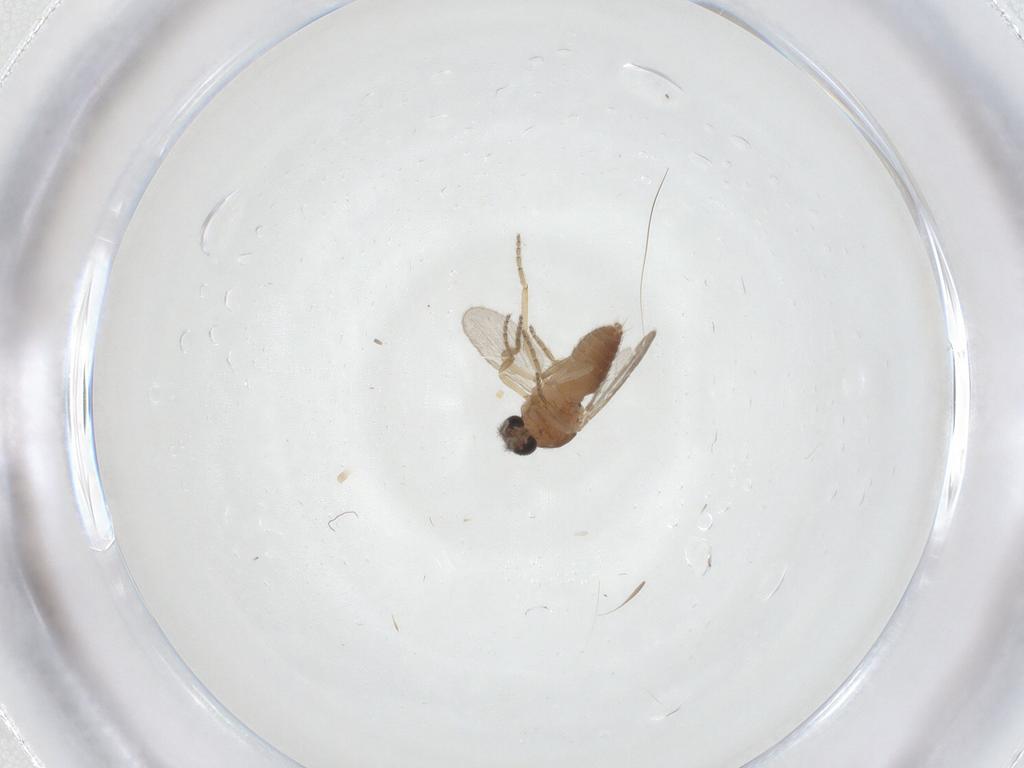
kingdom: Animalia
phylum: Arthropoda
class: Insecta
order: Diptera
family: Ceratopogonidae
